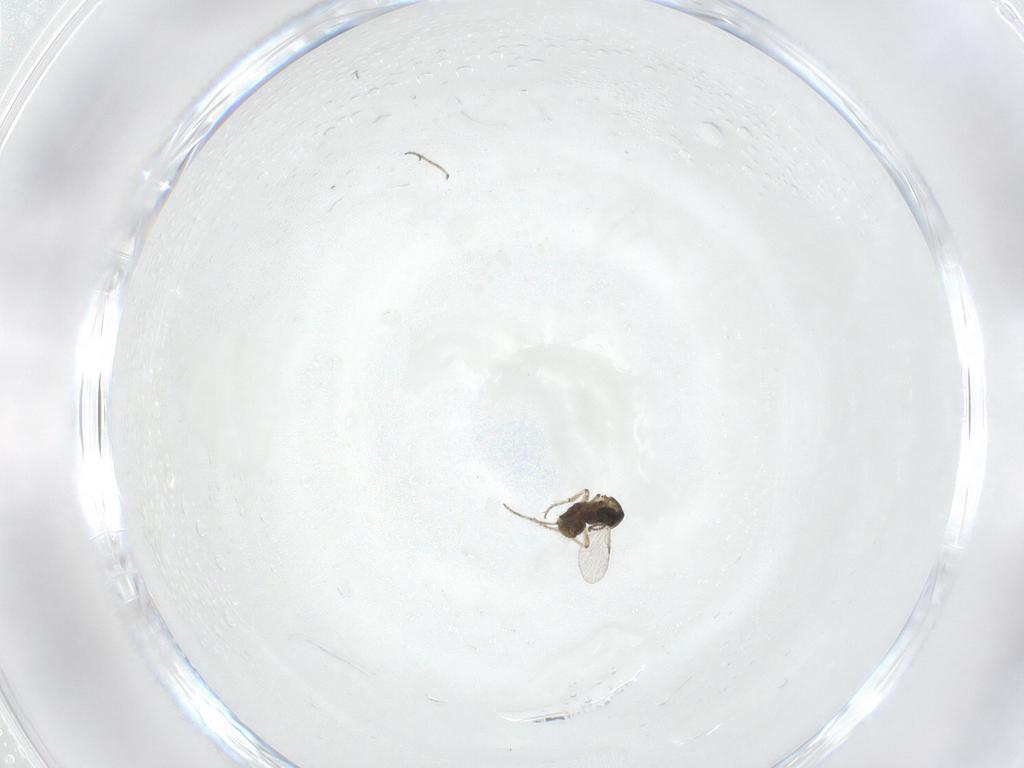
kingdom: Animalia
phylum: Arthropoda
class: Insecta
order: Diptera
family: Ceratopogonidae
